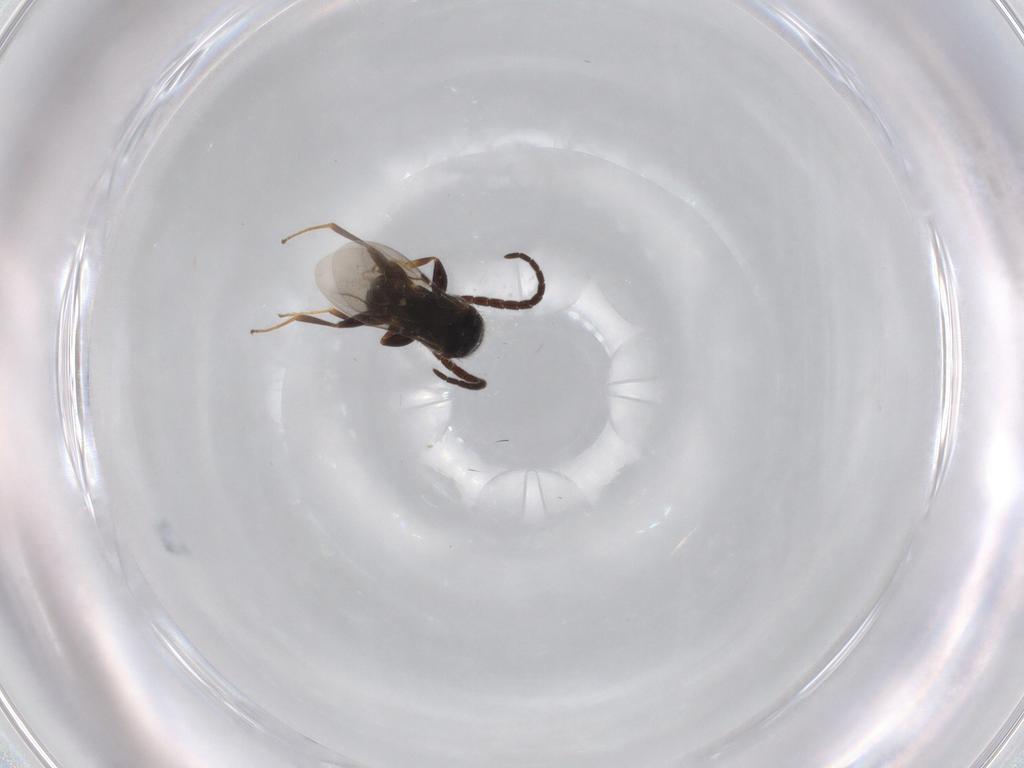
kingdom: Animalia
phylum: Arthropoda
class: Insecta
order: Hymenoptera
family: Bethylidae
